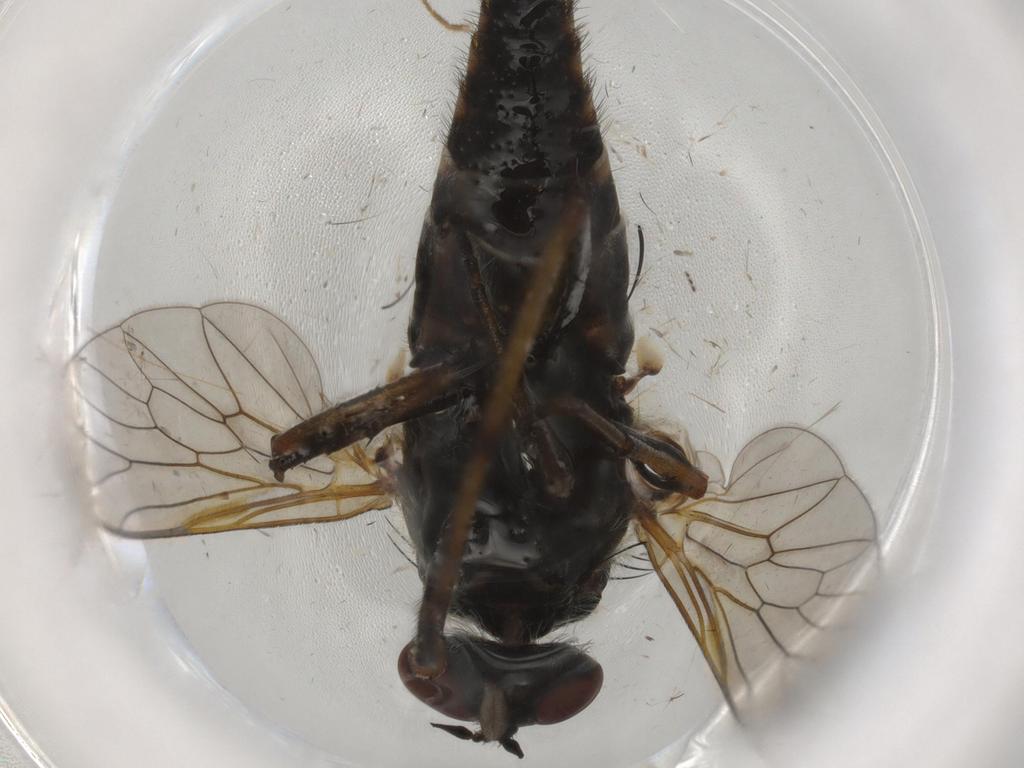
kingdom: Animalia
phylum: Arthropoda
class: Insecta
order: Diptera
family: Limoniidae
